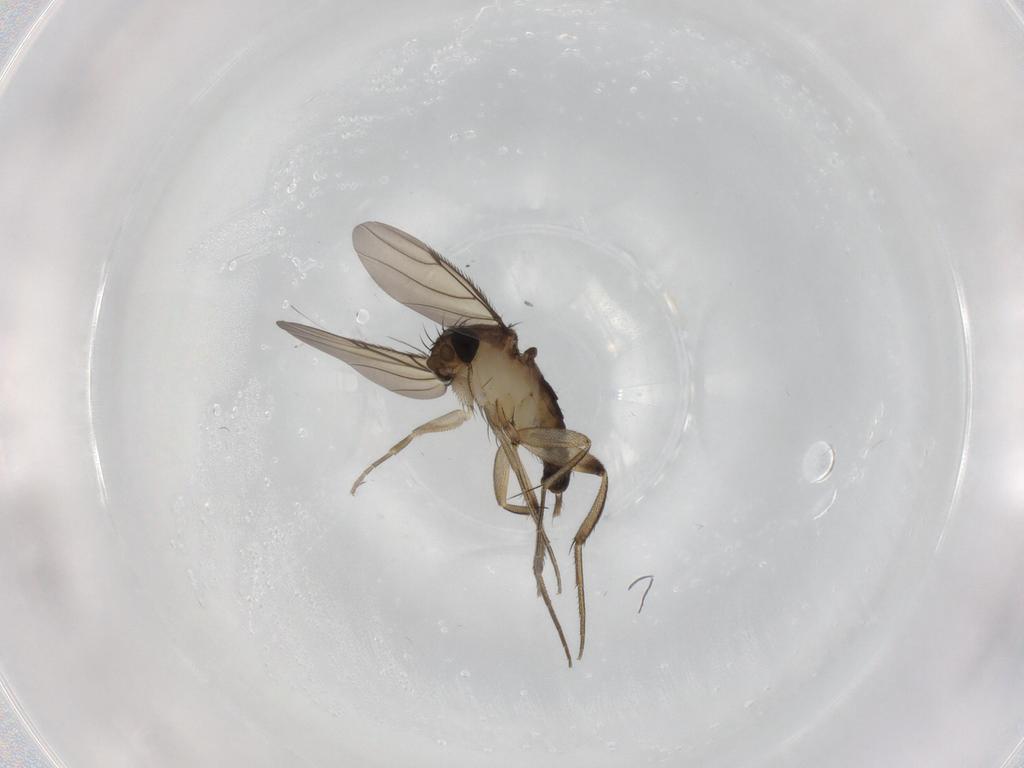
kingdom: Animalia
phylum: Arthropoda
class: Insecta
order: Diptera
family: Phoridae
